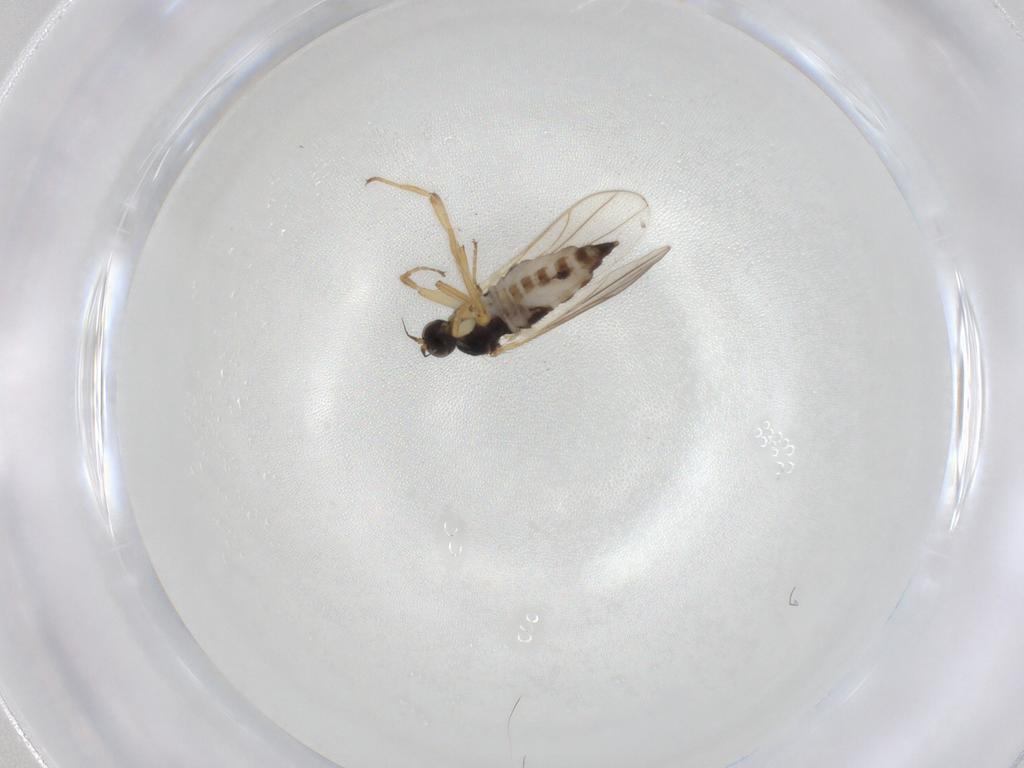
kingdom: Animalia
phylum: Arthropoda
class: Insecta
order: Diptera
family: Hybotidae
